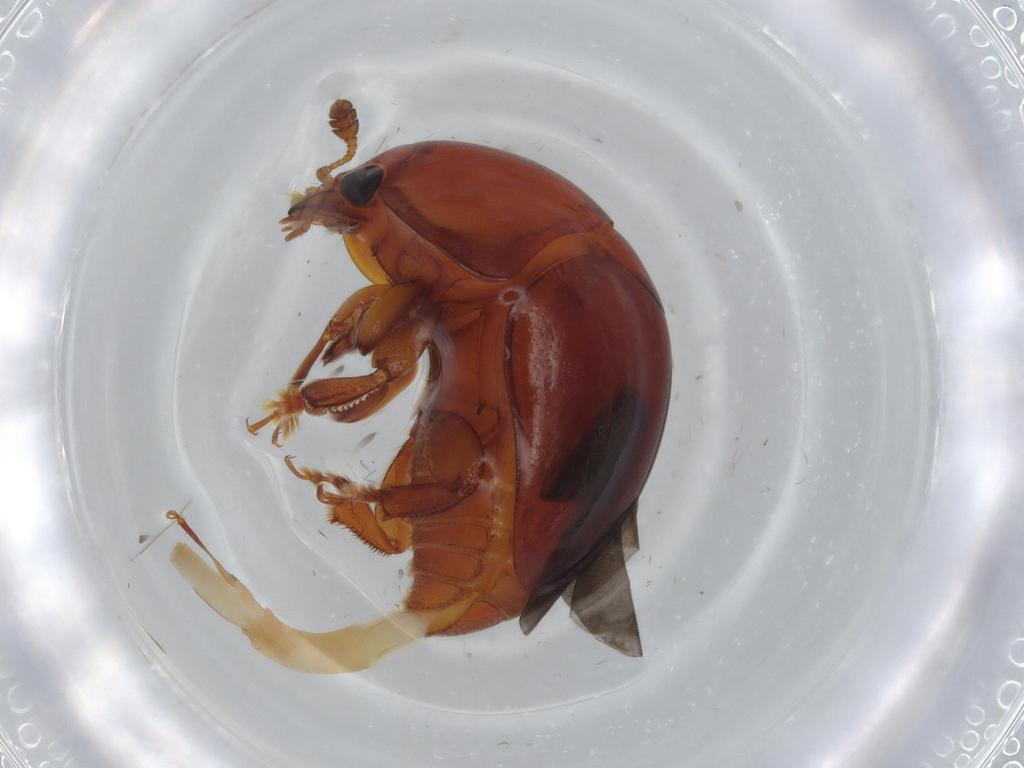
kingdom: Animalia
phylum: Arthropoda
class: Insecta
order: Coleoptera
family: Nitidulidae
